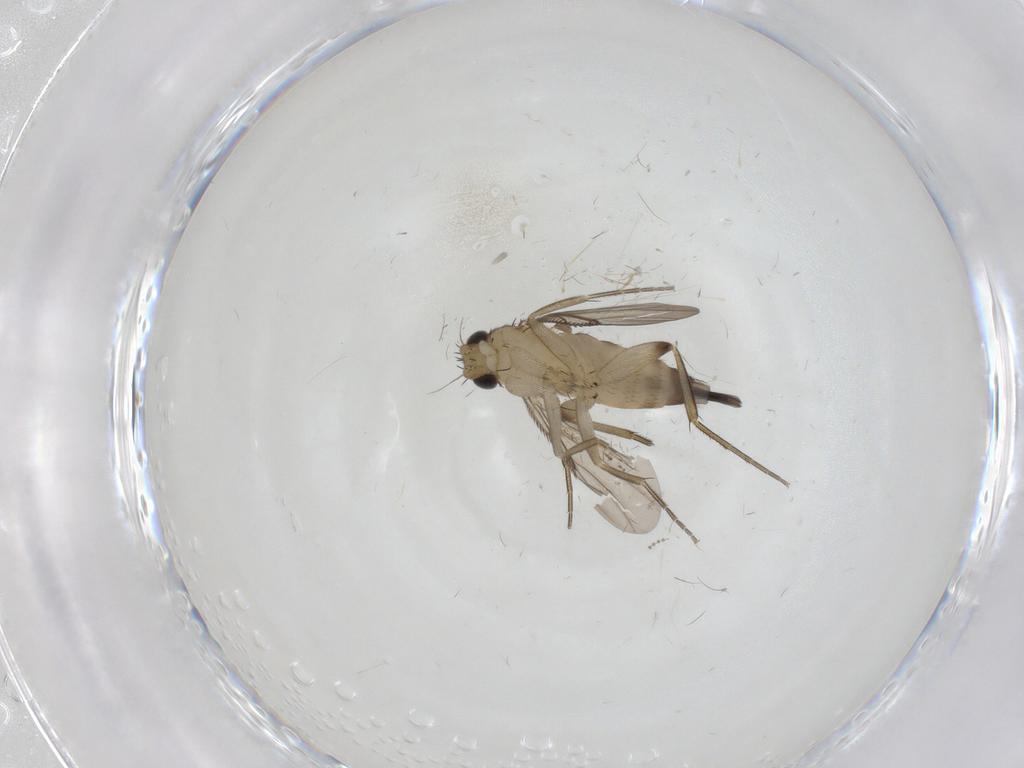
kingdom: Animalia
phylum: Arthropoda
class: Insecta
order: Diptera
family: Phoridae
